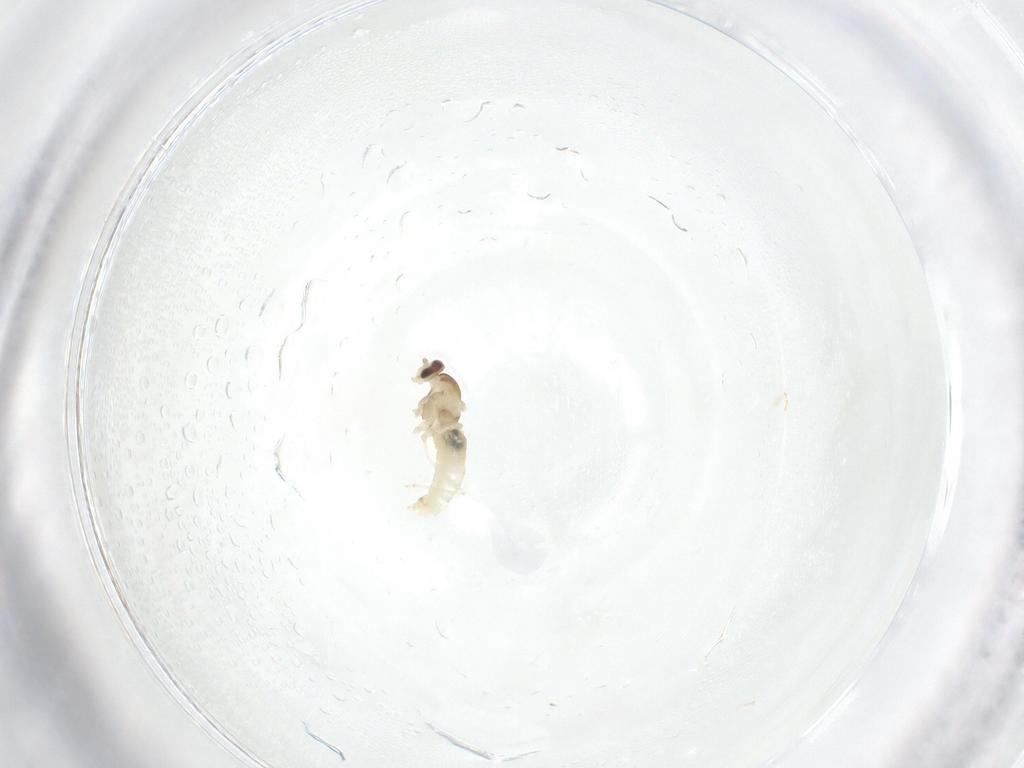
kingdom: Animalia
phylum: Arthropoda
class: Insecta
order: Diptera
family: Cecidomyiidae
